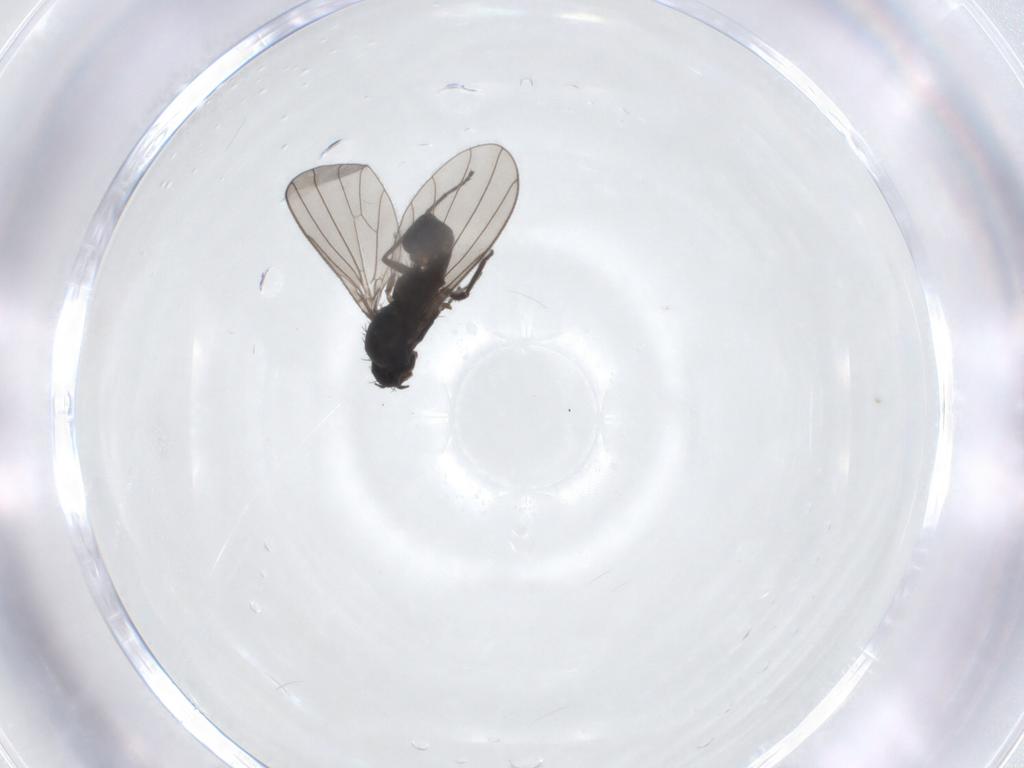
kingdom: Animalia
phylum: Arthropoda
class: Insecta
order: Diptera
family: Dolichopodidae
